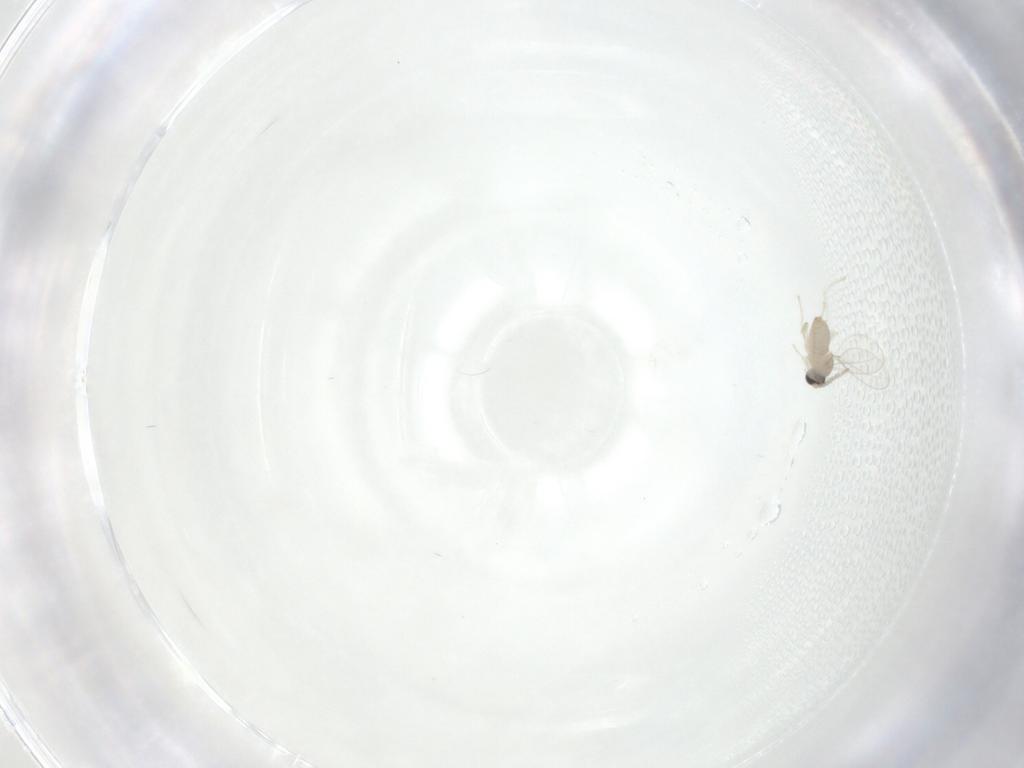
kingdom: Animalia
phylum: Arthropoda
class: Insecta
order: Diptera
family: Cecidomyiidae
